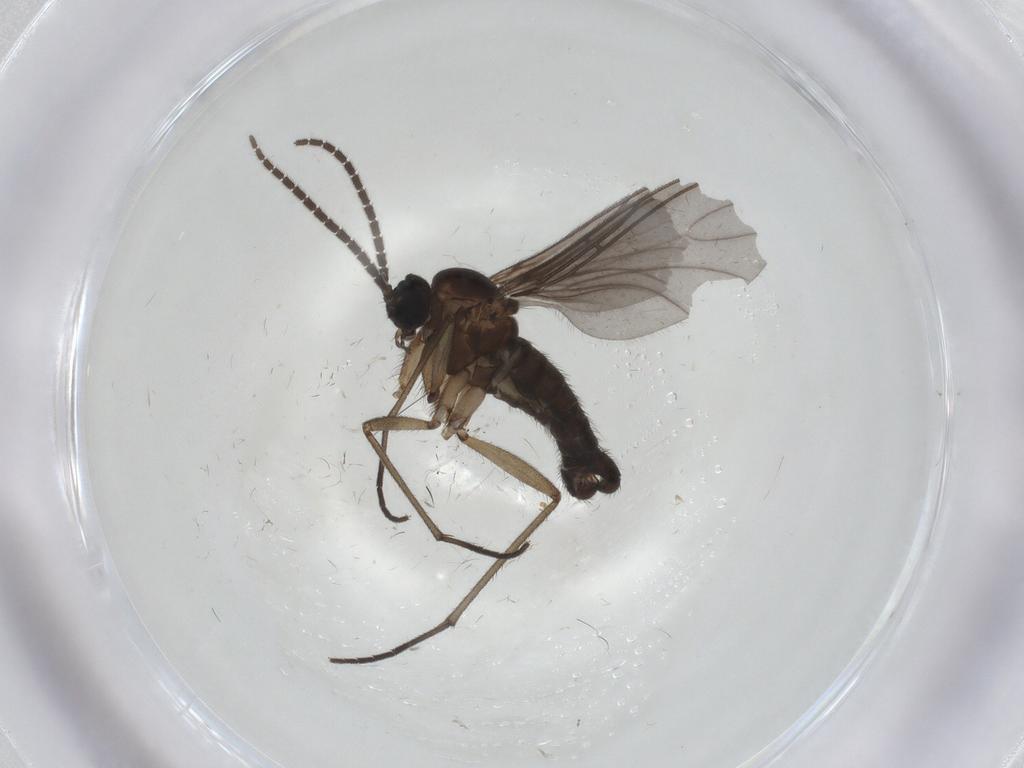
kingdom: Animalia
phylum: Arthropoda
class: Insecta
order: Diptera
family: Sciaridae
